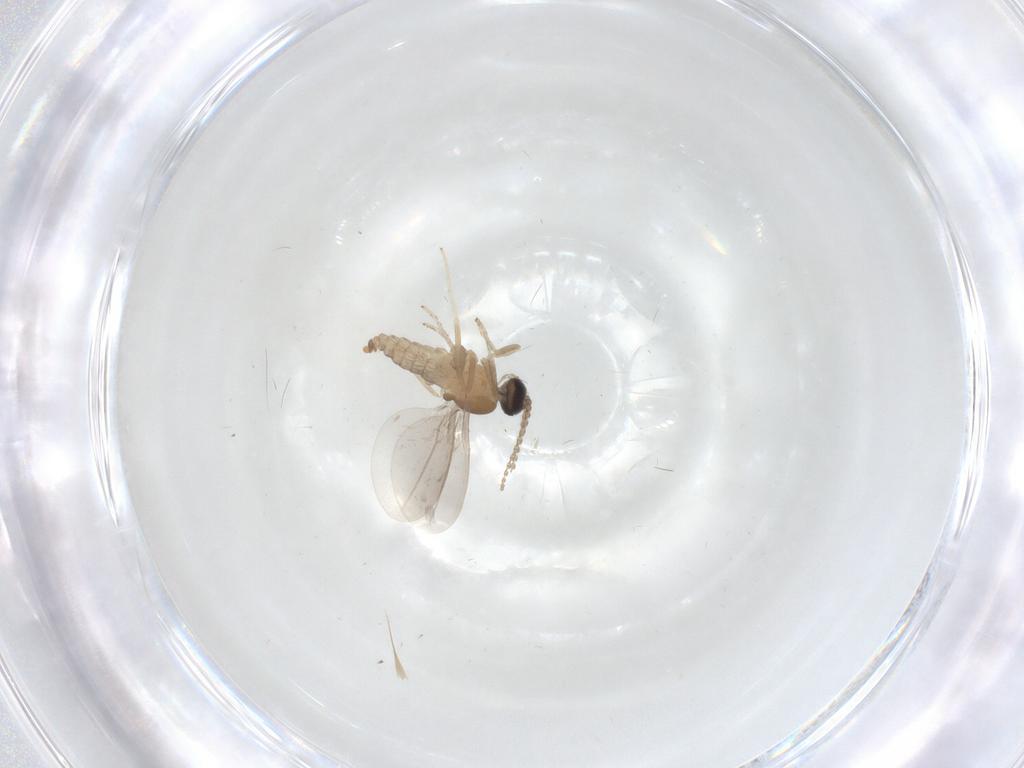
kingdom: Animalia
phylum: Arthropoda
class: Insecta
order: Diptera
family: Cecidomyiidae
